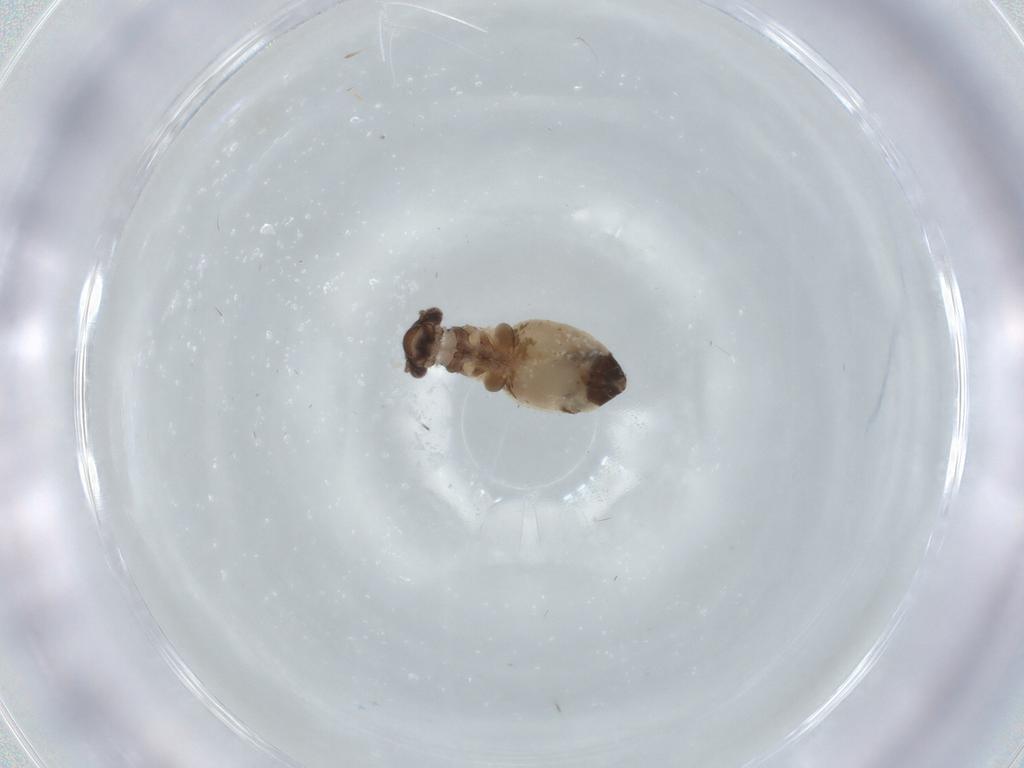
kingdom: Animalia
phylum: Arthropoda
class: Insecta
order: Psocodea
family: Lepidopsocidae
